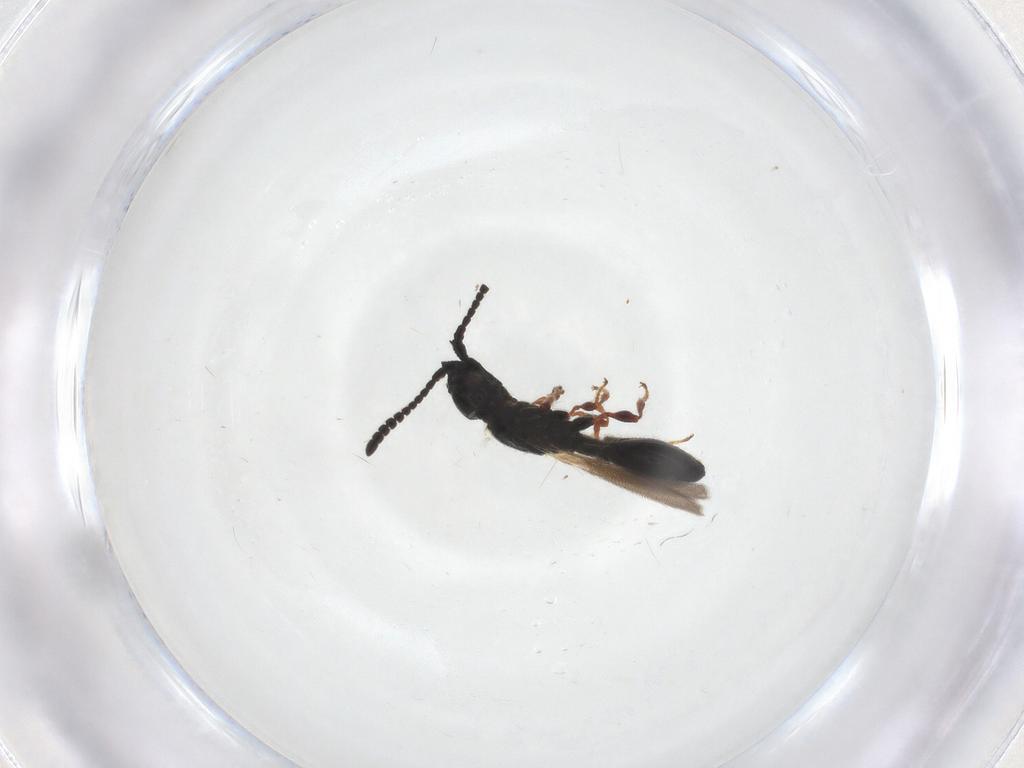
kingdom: Animalia
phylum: Arthropoda
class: Insecta
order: Hymenoptera
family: Diapriidae
